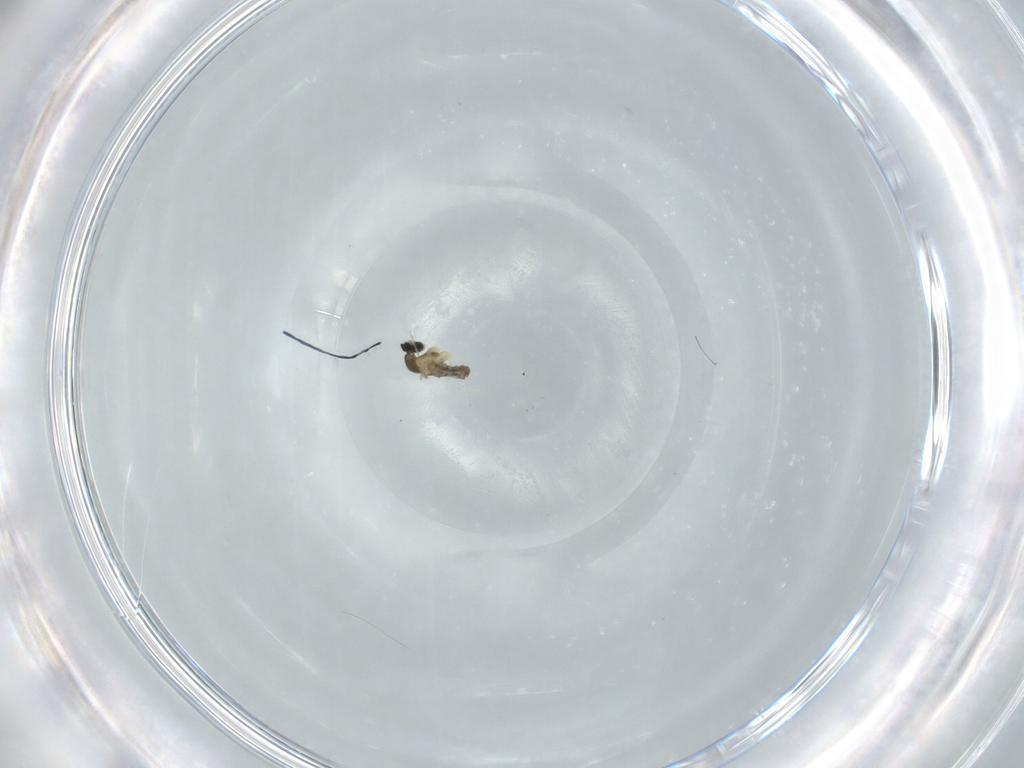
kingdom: Animalia
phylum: Arthropoda
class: Insecta
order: Diptera
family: Cecidomyiidae
